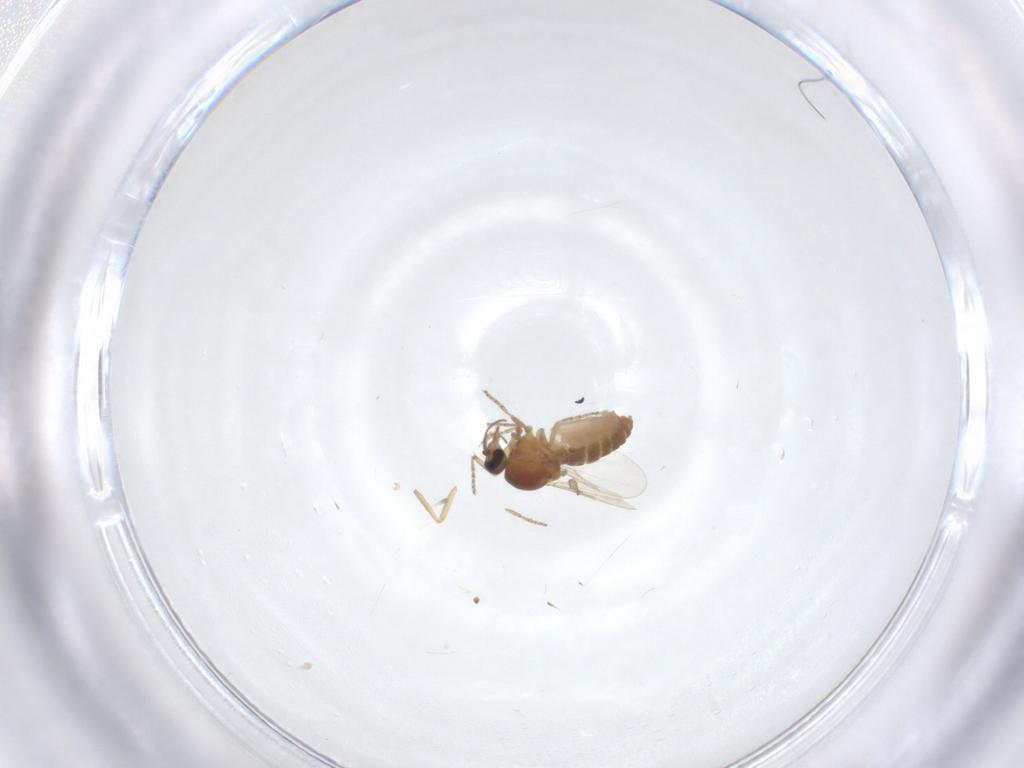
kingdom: Animalia
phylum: Arthropoda
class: Insecta
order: Diptera
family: Ceratopogonidae
